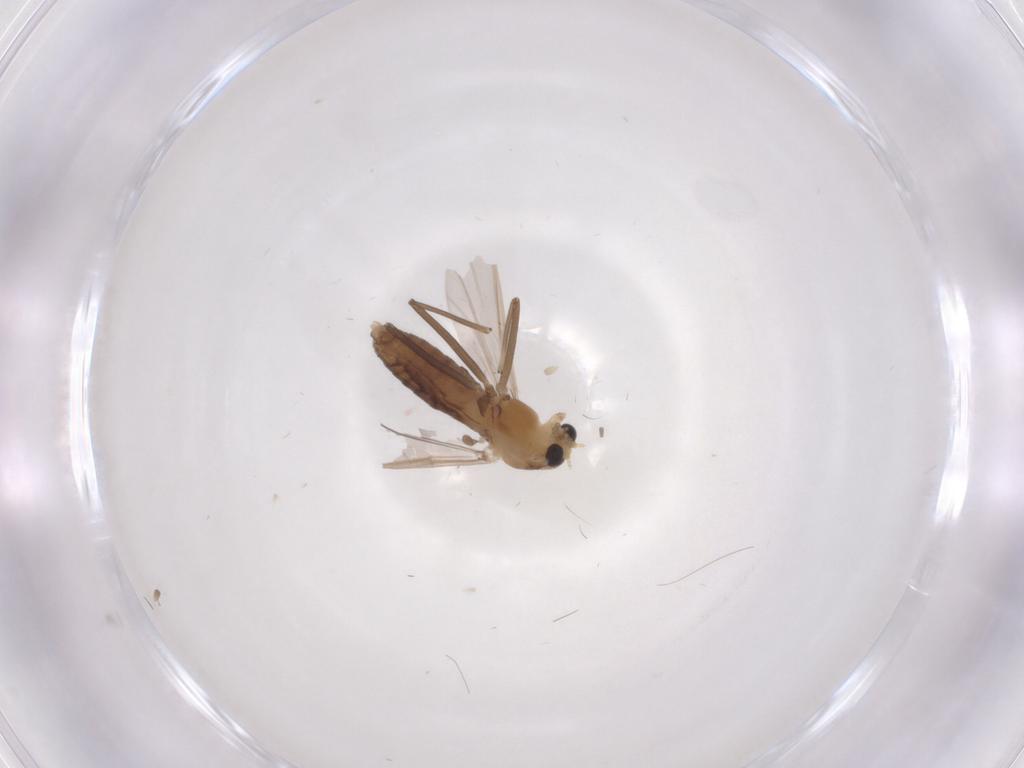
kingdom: Animalia
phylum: Arthropoda
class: Insecta
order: Diptera
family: Chironomidae
